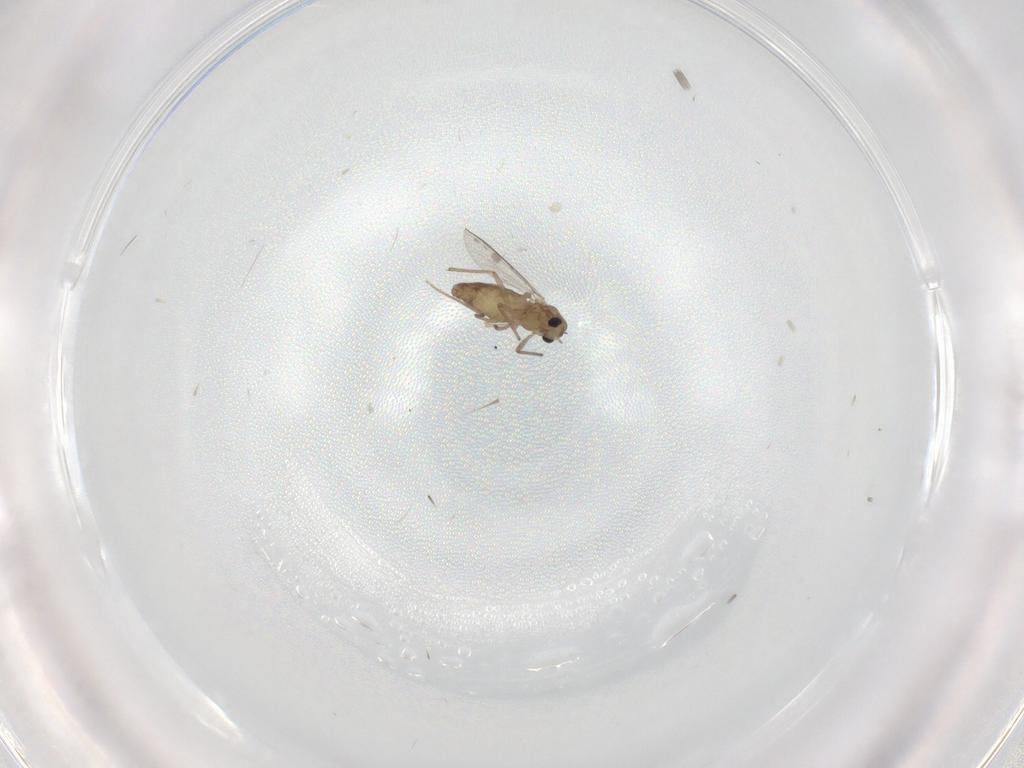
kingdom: Animalia
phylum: Arthropoda
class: Insecta
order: Diptera
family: Chironomidae
